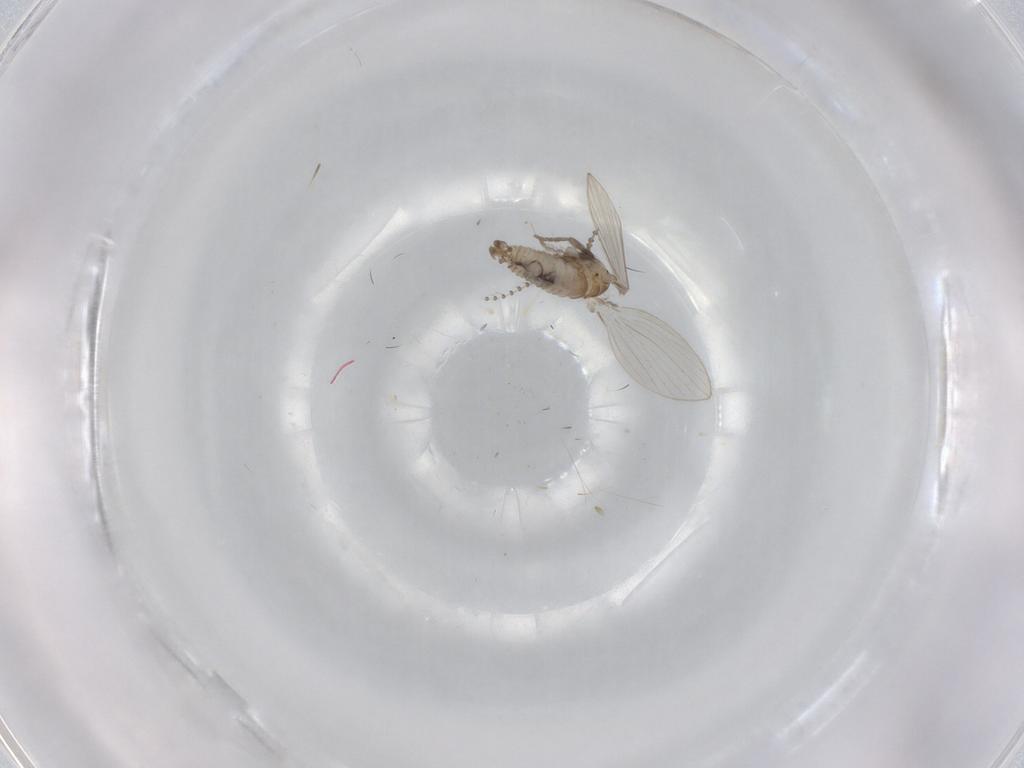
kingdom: Animalia
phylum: Arthropoda
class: Insecta
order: Diptera
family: Psychodidae
